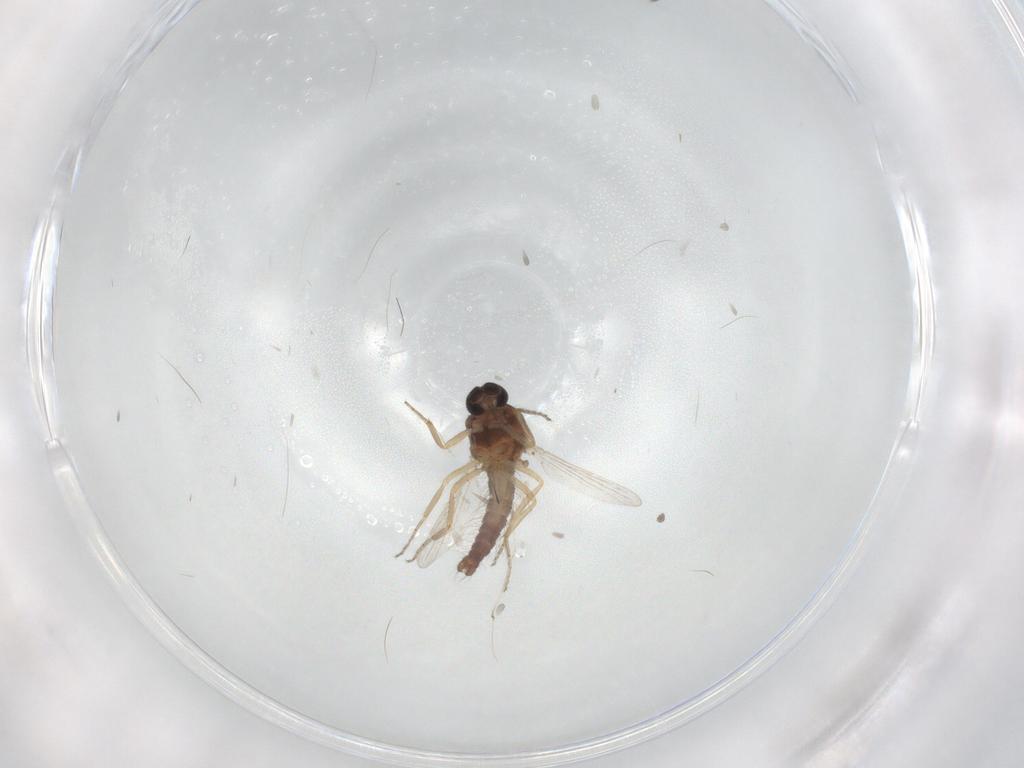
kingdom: Animalia
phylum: Arthropoda
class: Insecta
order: Diptera
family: Ceratopogonidae
